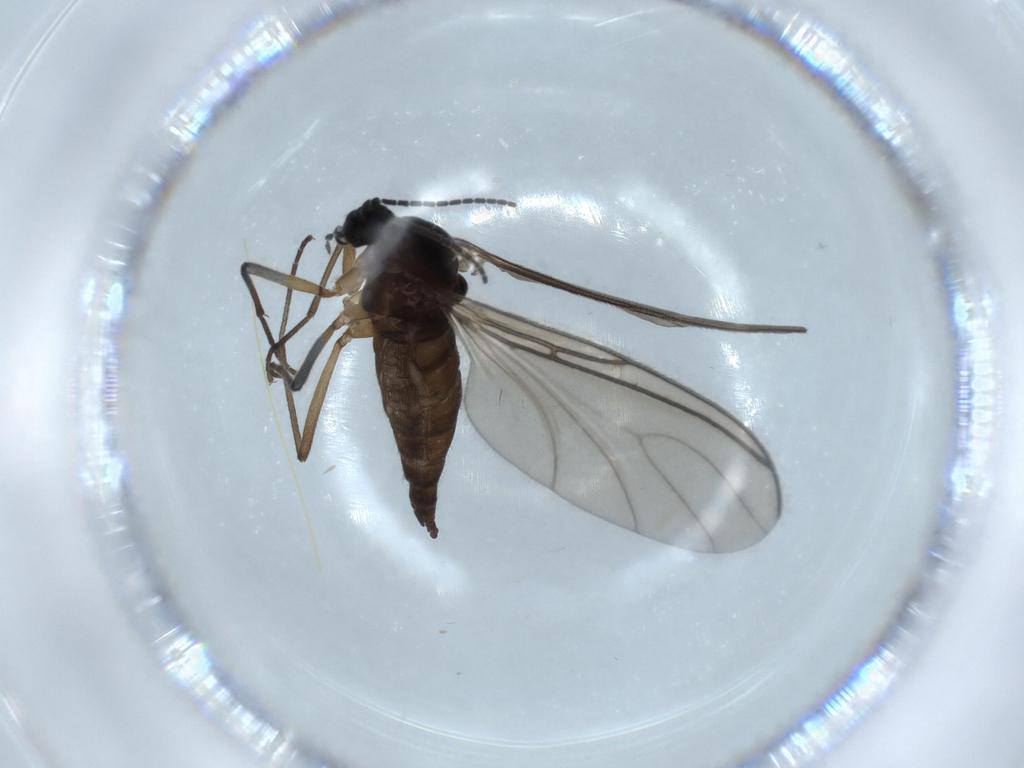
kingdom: Animalia
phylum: Arthropoda
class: Insecta
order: Diptera
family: Sciaridae
